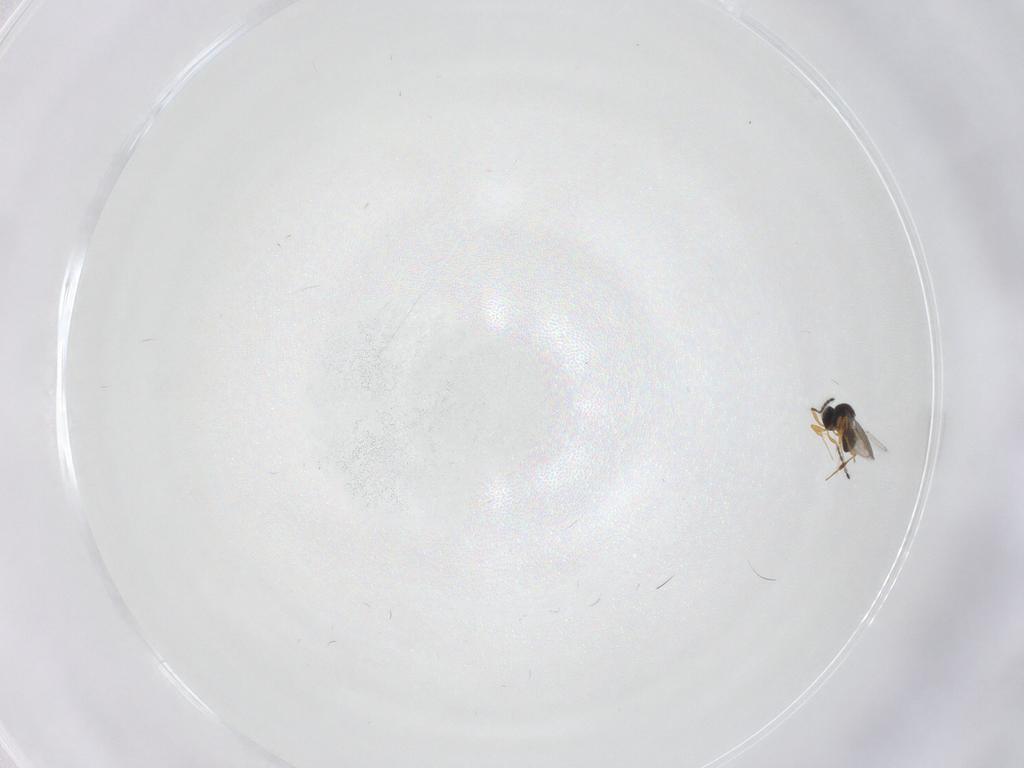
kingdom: Animalia
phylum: Arthropoda
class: Insecta
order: Hymenoptera
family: Platygastridae
